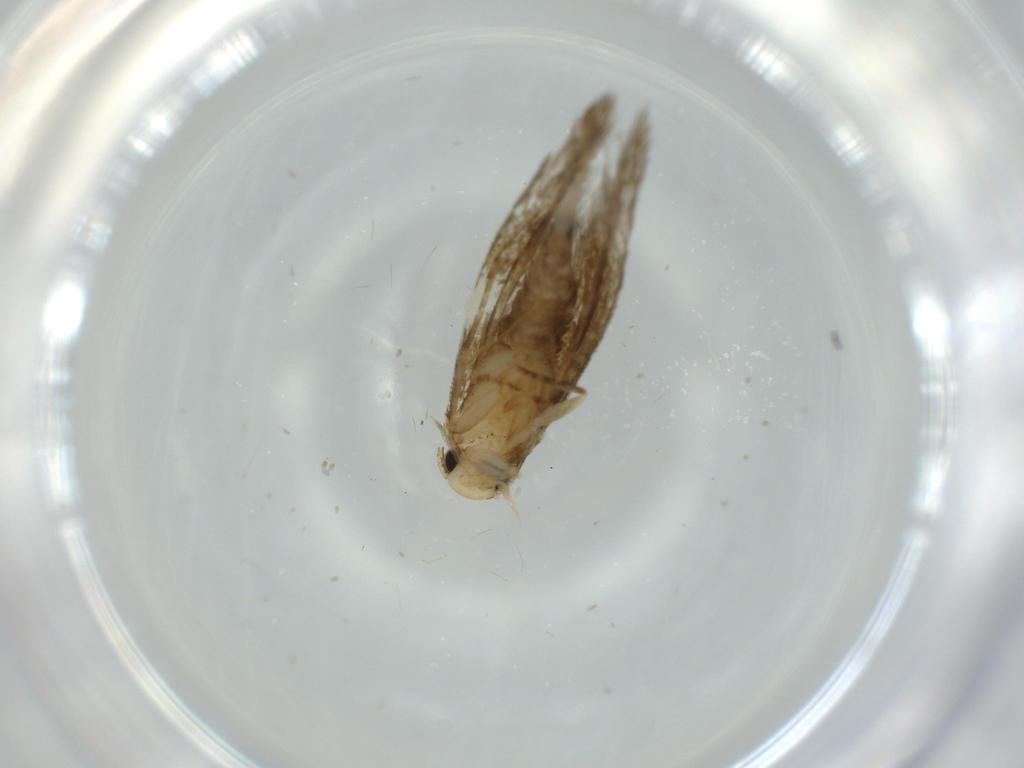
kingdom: Animalia
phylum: Arthropoda
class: Insecta
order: Lepidoptera
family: Tineidae
